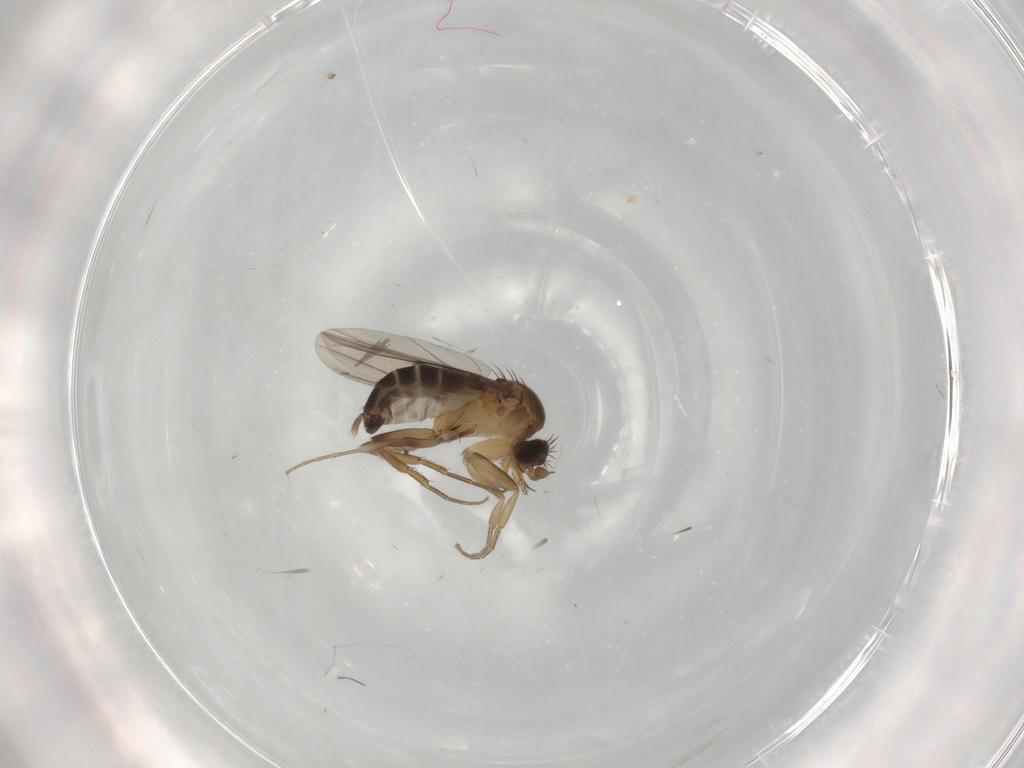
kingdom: Animalia
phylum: Arthropoda
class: Insecta
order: Diptera
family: Phoridae
